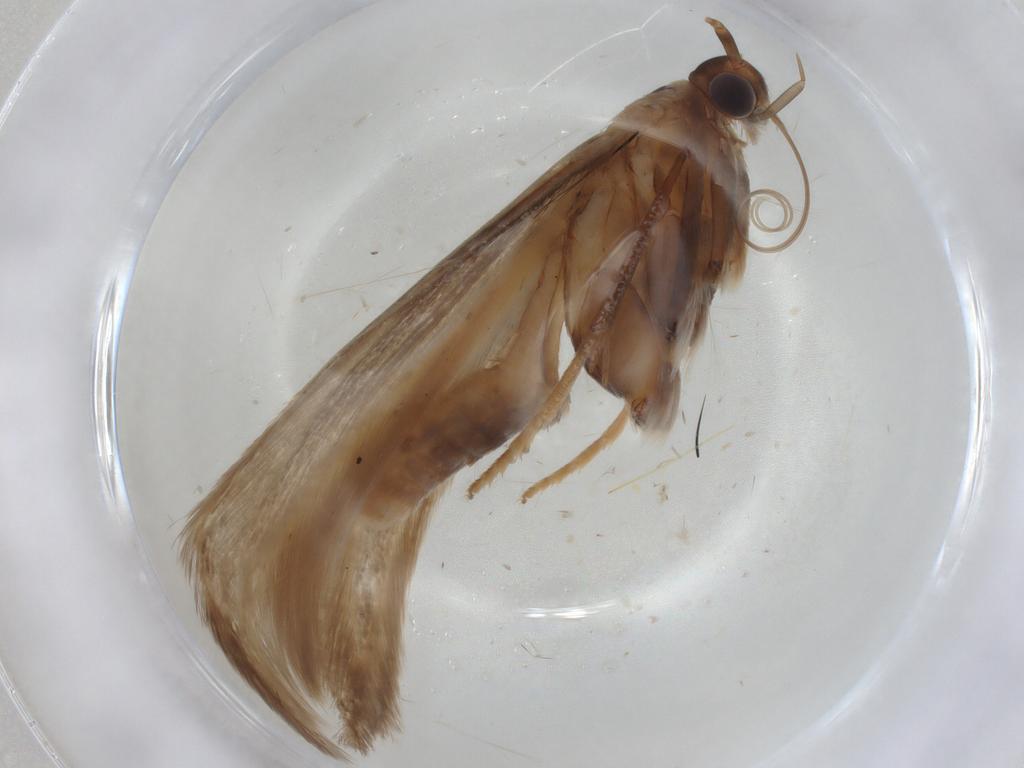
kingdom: Animalia
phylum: Arthropoda
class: Insecta
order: Lepidoptera
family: Coleophoridae
